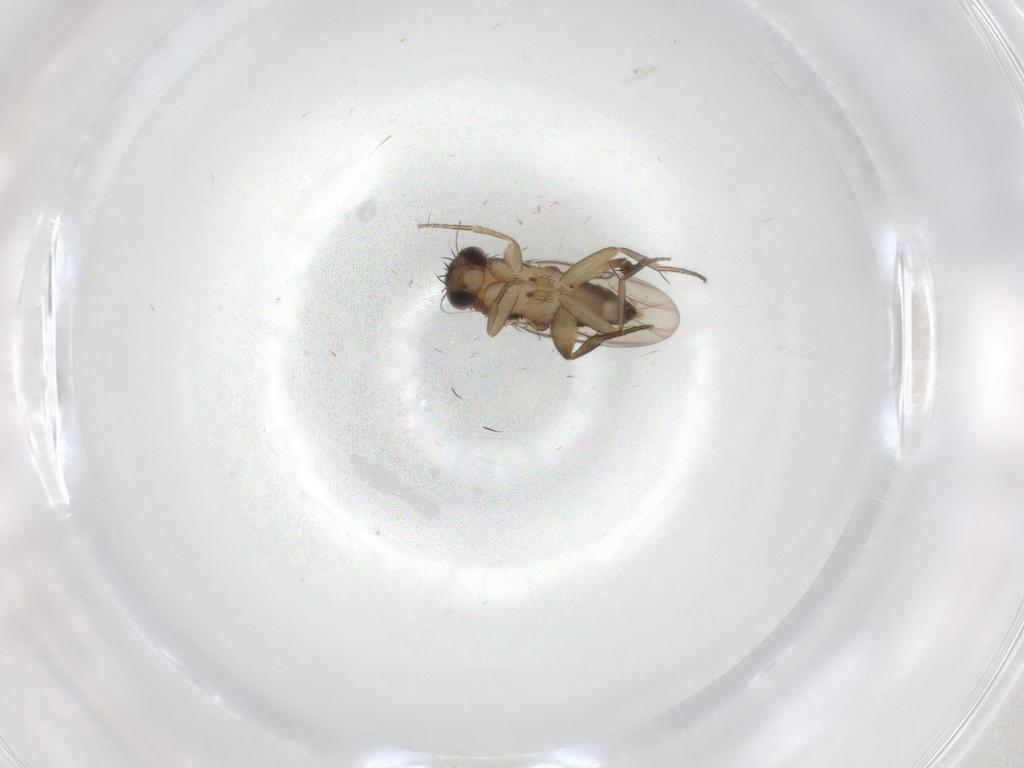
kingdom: Animalia
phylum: Arthropoda
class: Insecta
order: Diptera
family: Phoridae
